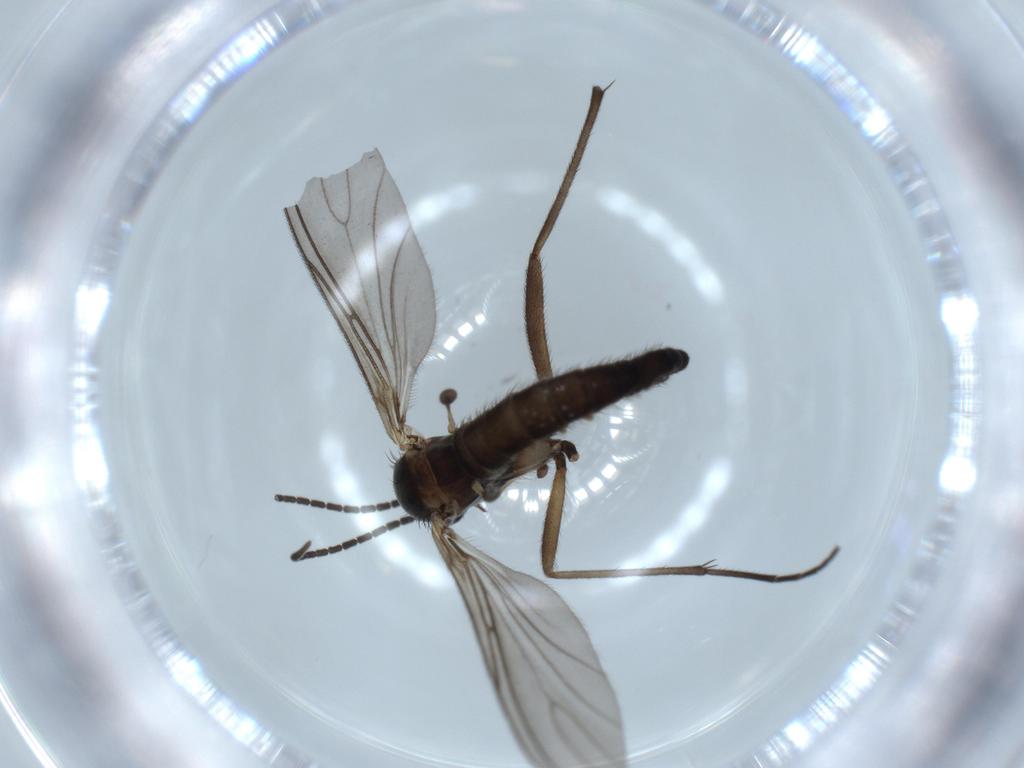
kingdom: Animalia
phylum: Arthropoda
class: Insecta
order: Diptera
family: Sciaridae
